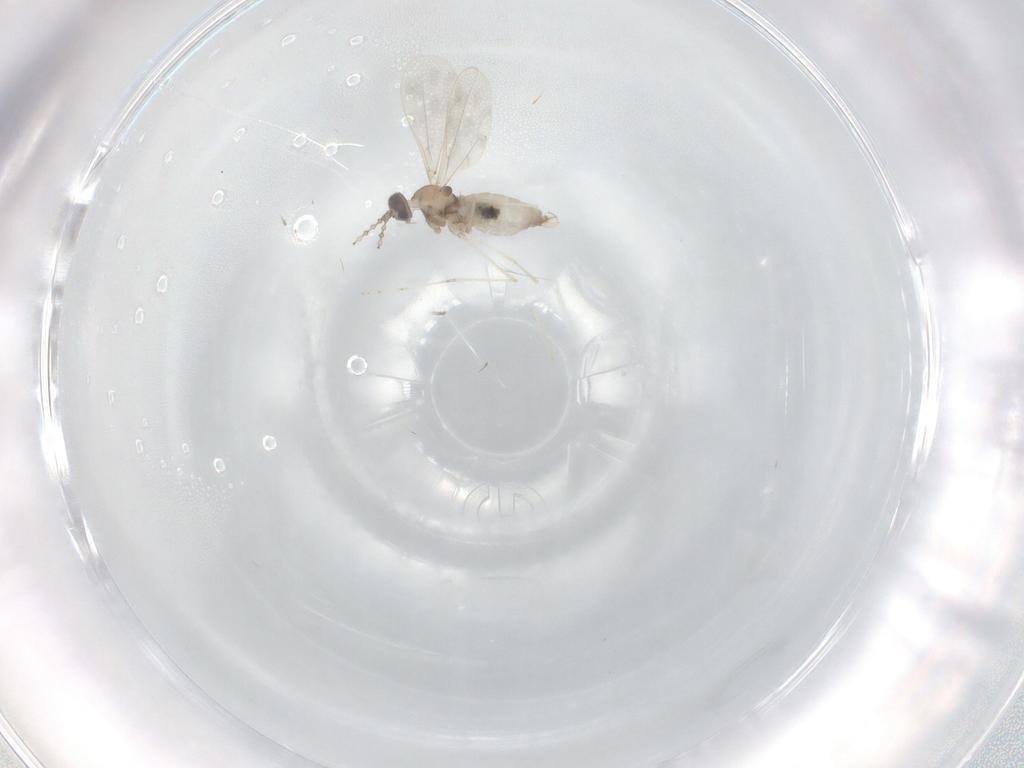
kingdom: Animalia
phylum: Arthropoda
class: Insecta
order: Diptera
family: Cecidomyiidae
